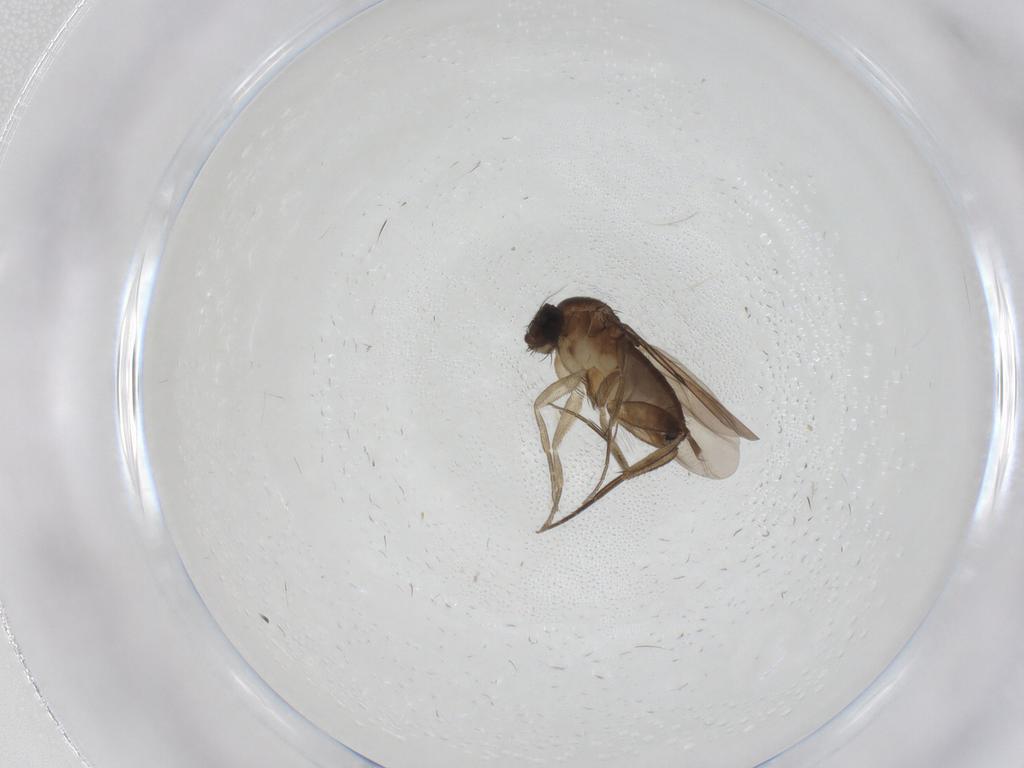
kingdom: Animalia
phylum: Arthropoda
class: Insecta
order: Diptera
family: Phoridae
